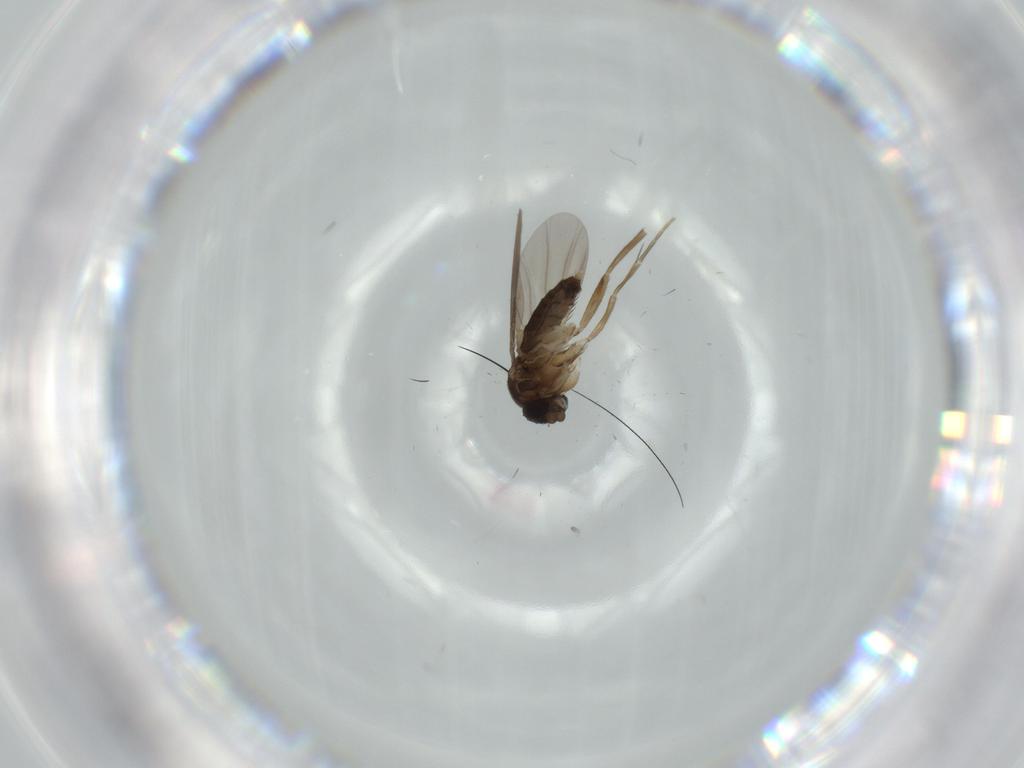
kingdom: Animalia
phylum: Arthropoda
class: Insecta
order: Diptera
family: Phoridae
